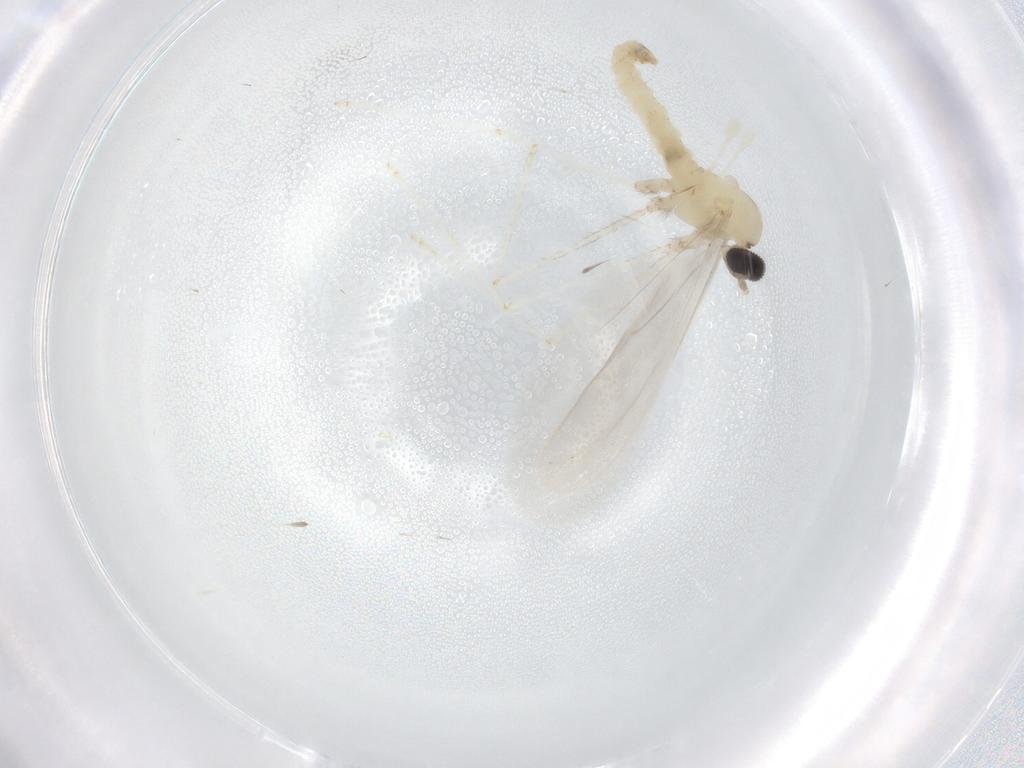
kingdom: Animalia
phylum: Arthropoda
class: Insecta
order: Diptera
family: Cecidomyiidae
